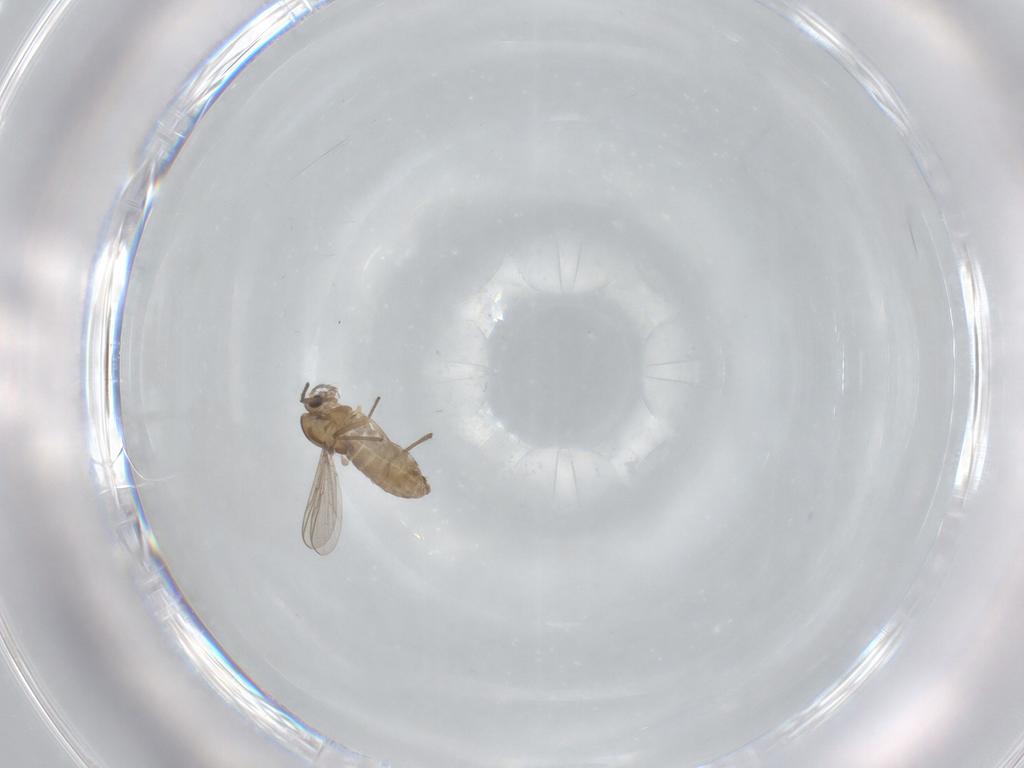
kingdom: Animalia
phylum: Arthropoda
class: Insecta
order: Diptera
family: Chironomidae
